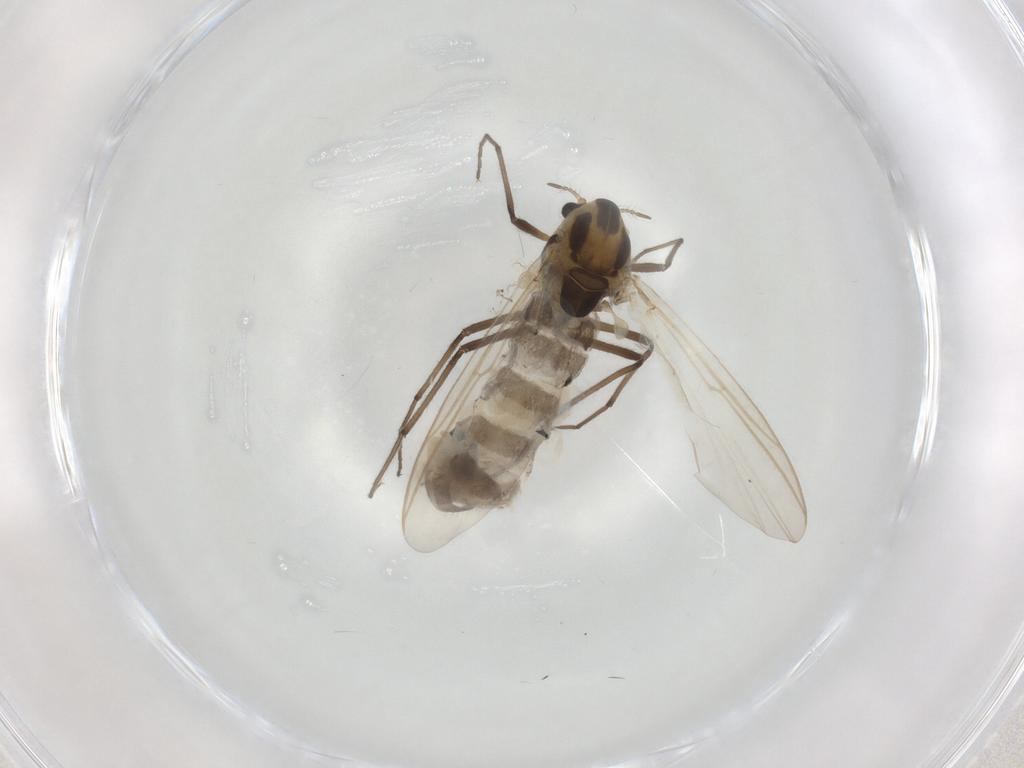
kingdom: Animalia
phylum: Arthropoda
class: Insecta
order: Diptera
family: Chironomidae
